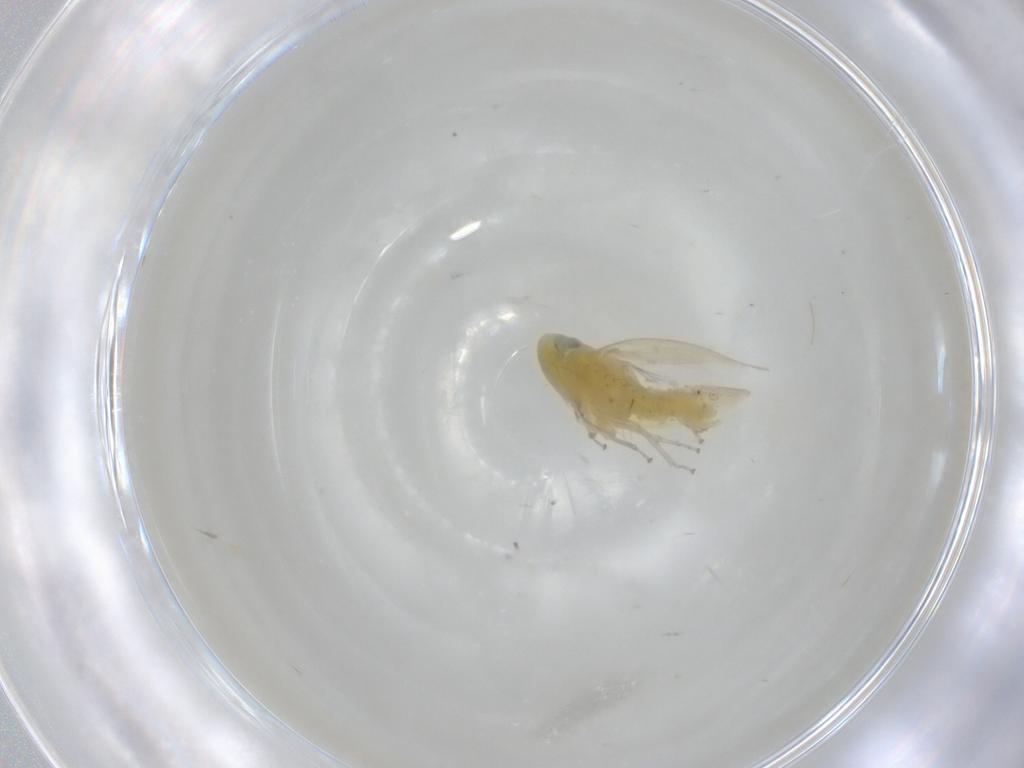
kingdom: Animalia
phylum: Arthropoda
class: Insecta
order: Hemiptera
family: Cicadellidae
